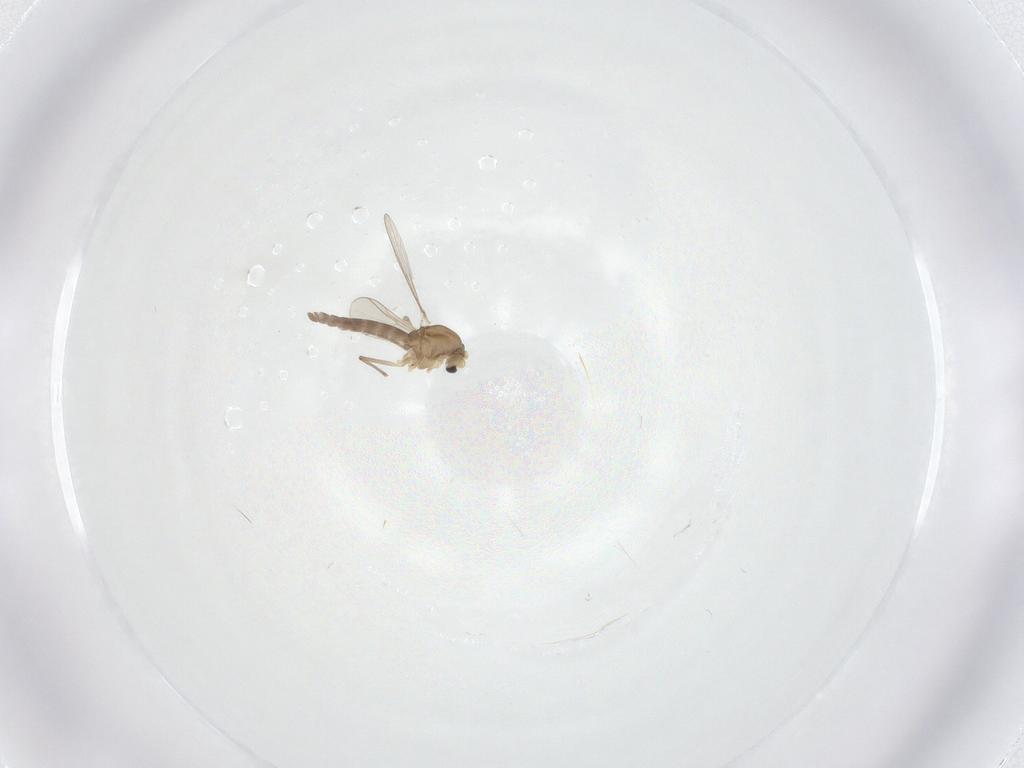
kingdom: Animalia
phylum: Arthropoda
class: Insecta
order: Diptera
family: Chironomidae
